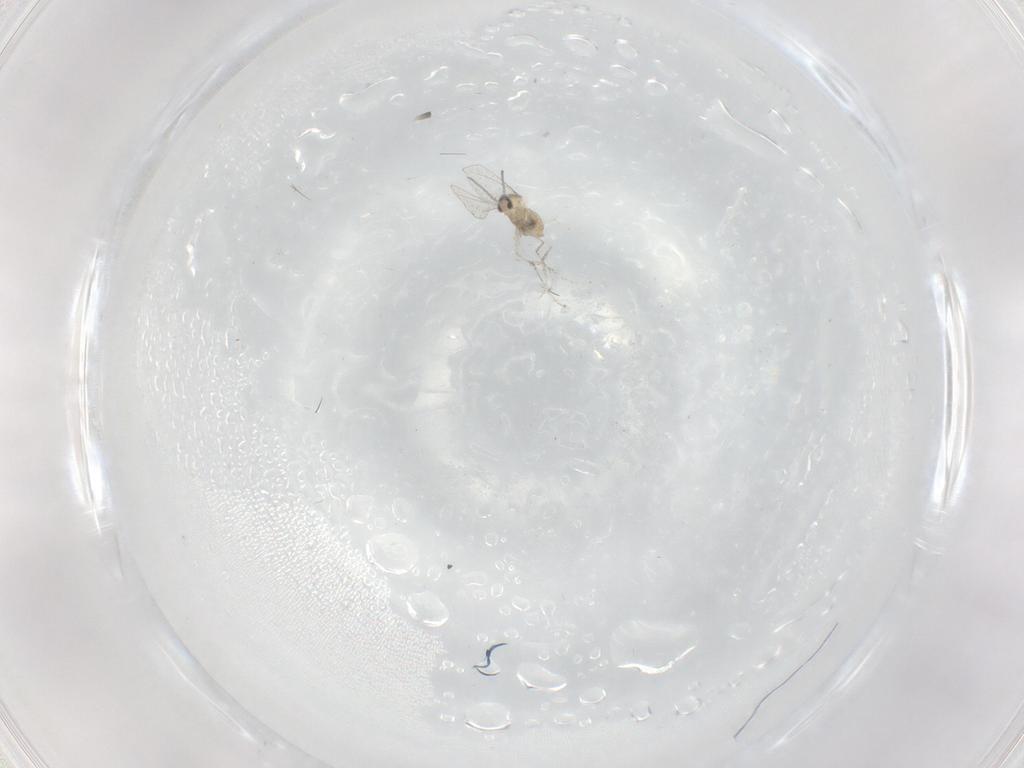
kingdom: Animalia
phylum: Arthropoda
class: Insecta
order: Diptera
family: Cecidomyiidae
